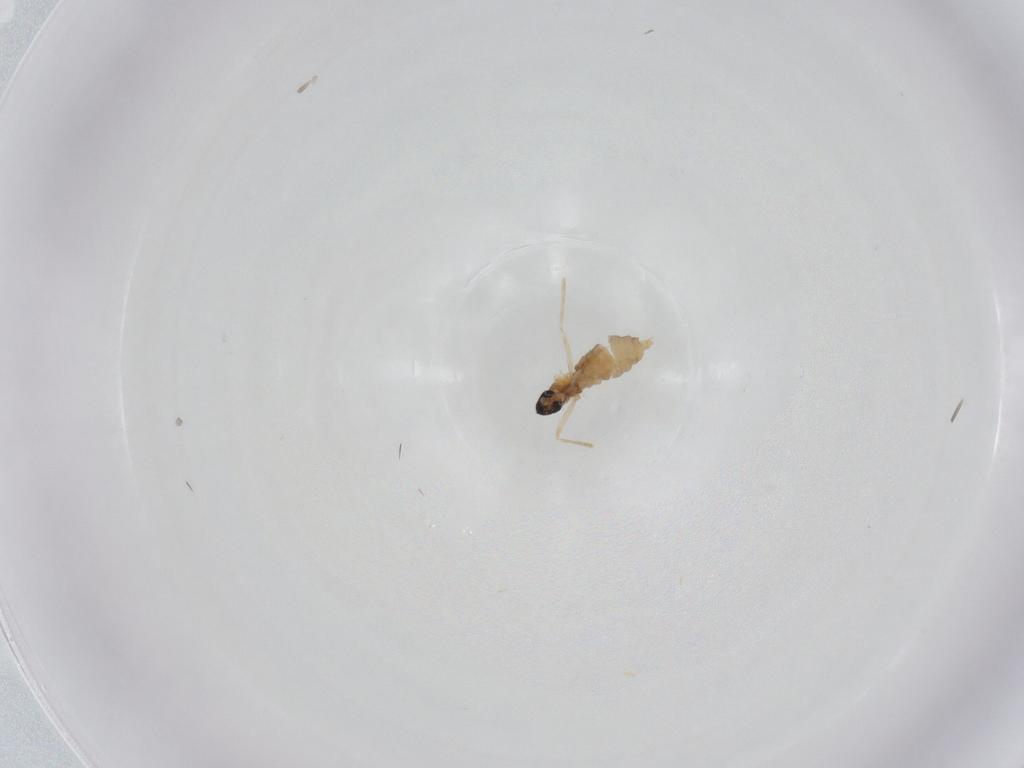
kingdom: Animalia
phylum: Arthropoda
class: Insecta
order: Diptera
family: Cecidomyiidae
